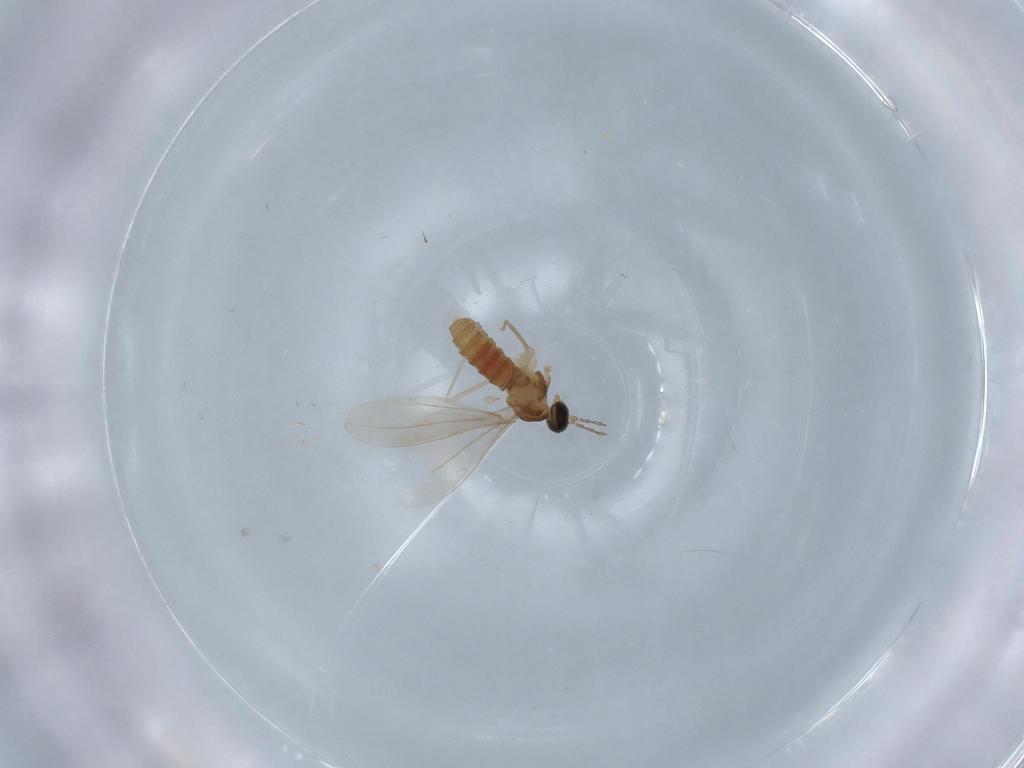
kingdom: Animalia
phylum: Arthropoda
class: Insecta
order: Diptera
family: Cecidomyiidae
